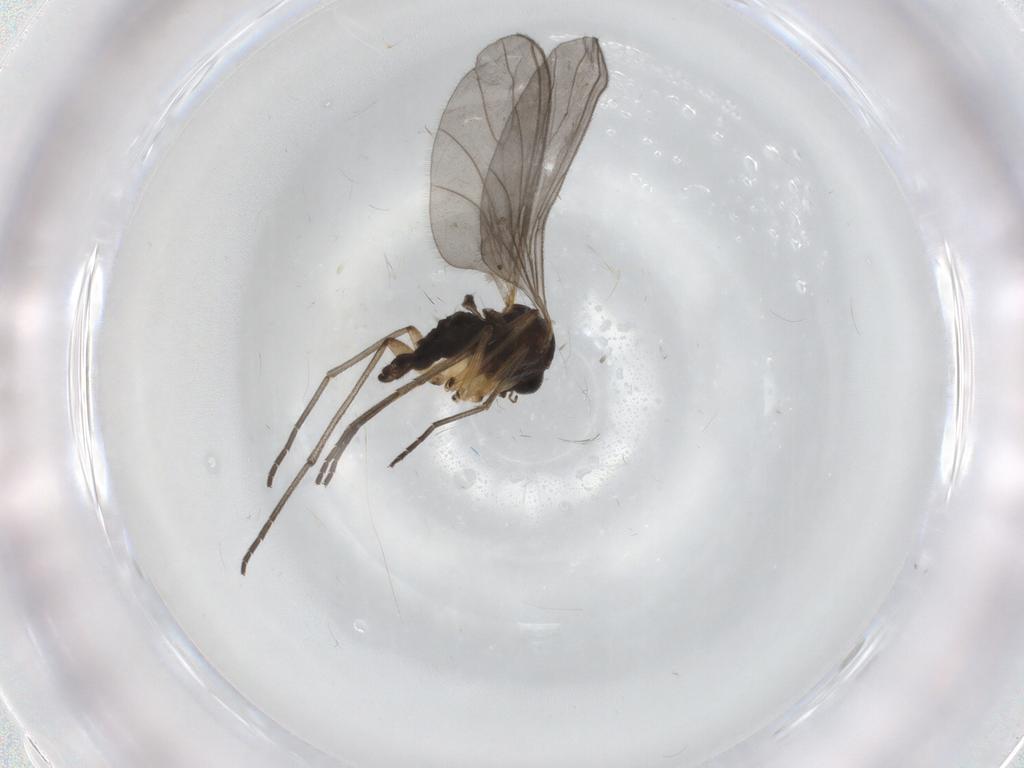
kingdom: Animalia
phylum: Arthropoda
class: Insecta
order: Diptera
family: Sciaridae
